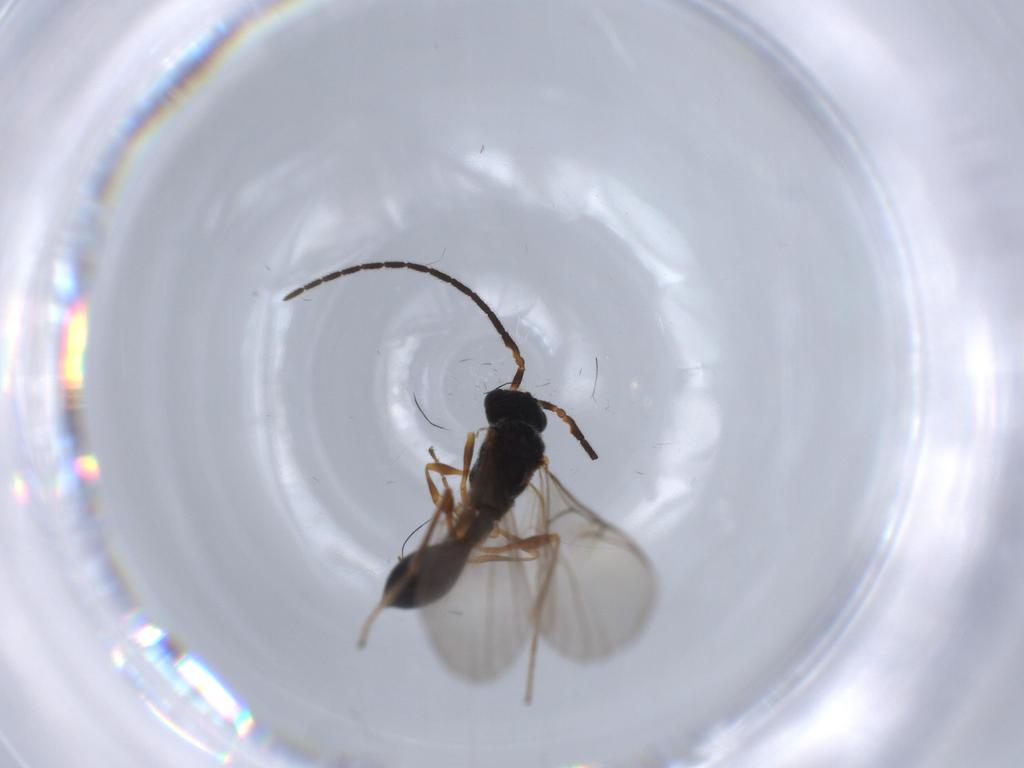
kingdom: Animalia
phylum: Arthropoda
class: Insecta
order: Hymenoptera
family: Diapriidae
